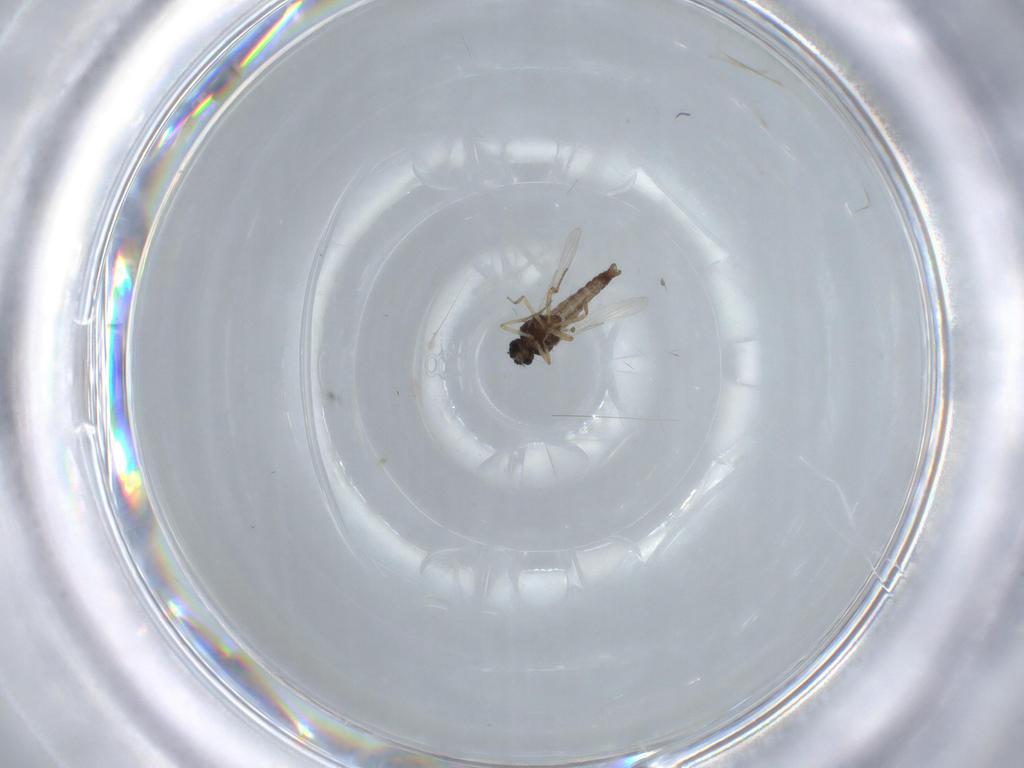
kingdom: Animalia
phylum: Arthropoda
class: Insecta
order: Diptera
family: Ceratopogonidae
